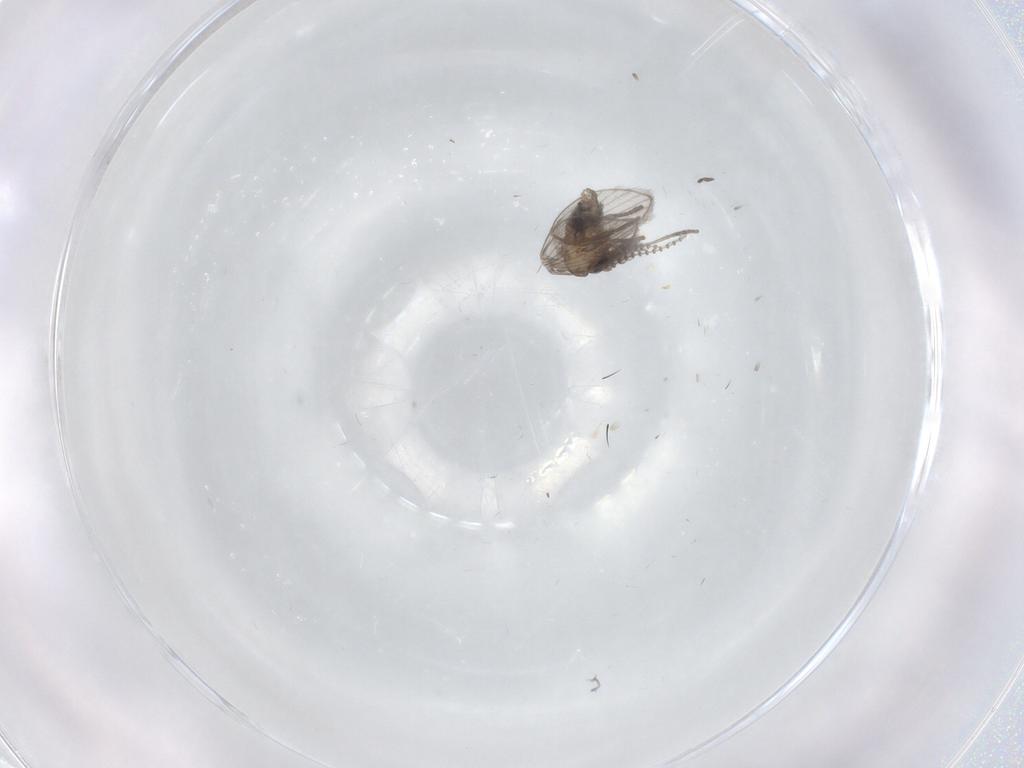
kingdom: Animalia
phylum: Arthropoda
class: Insecta
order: Diptera
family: Psychodidae
